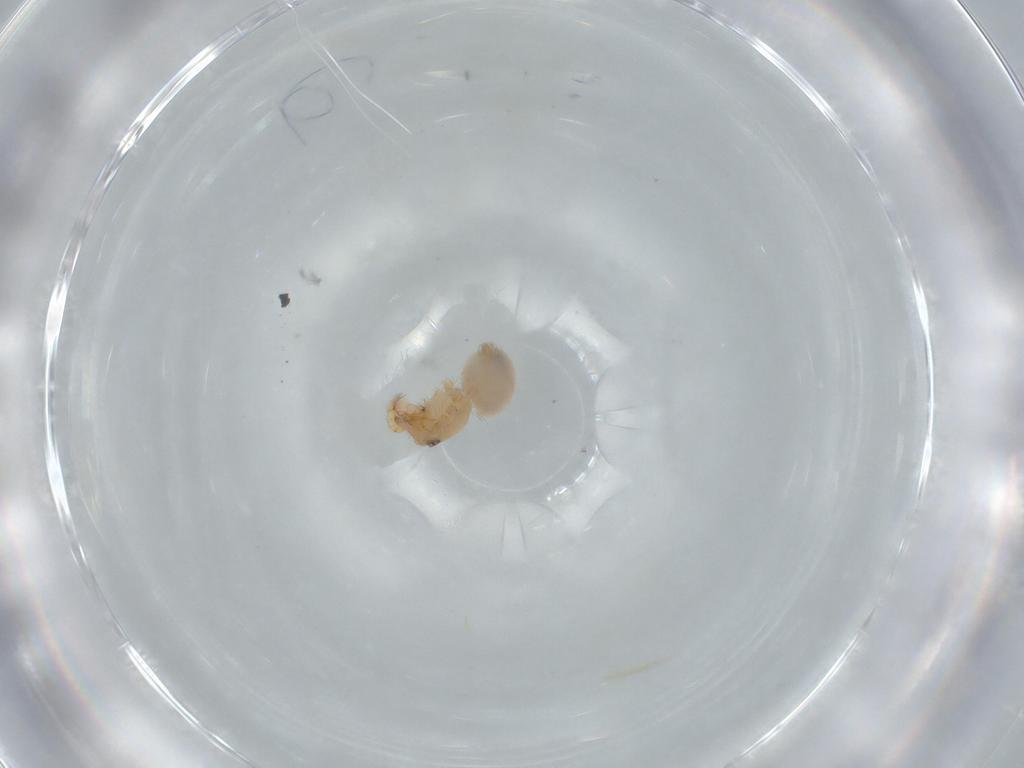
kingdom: Animalia
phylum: Arthropoda
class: Arachnida
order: Araneae
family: Oonopidae
